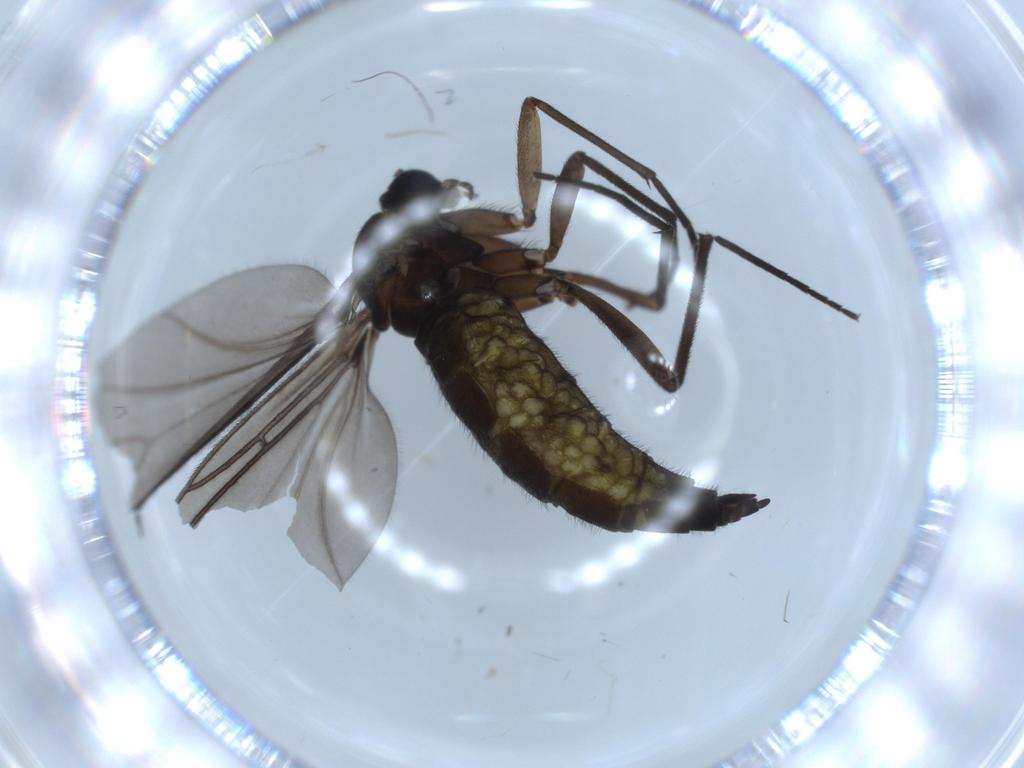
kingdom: Animalia
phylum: Arthropoda
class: Insecta
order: Diptera
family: Sciaridae
